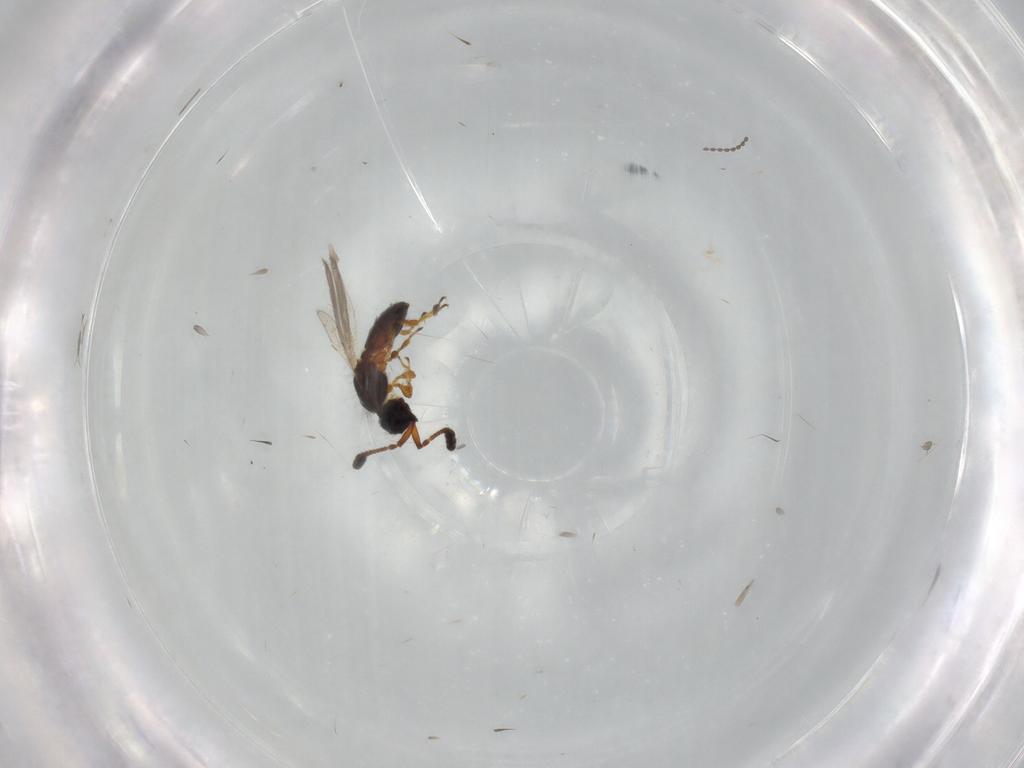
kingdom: Animalia
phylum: Arthropoda
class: Insecta
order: Hymenoptera
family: Diapriidae
